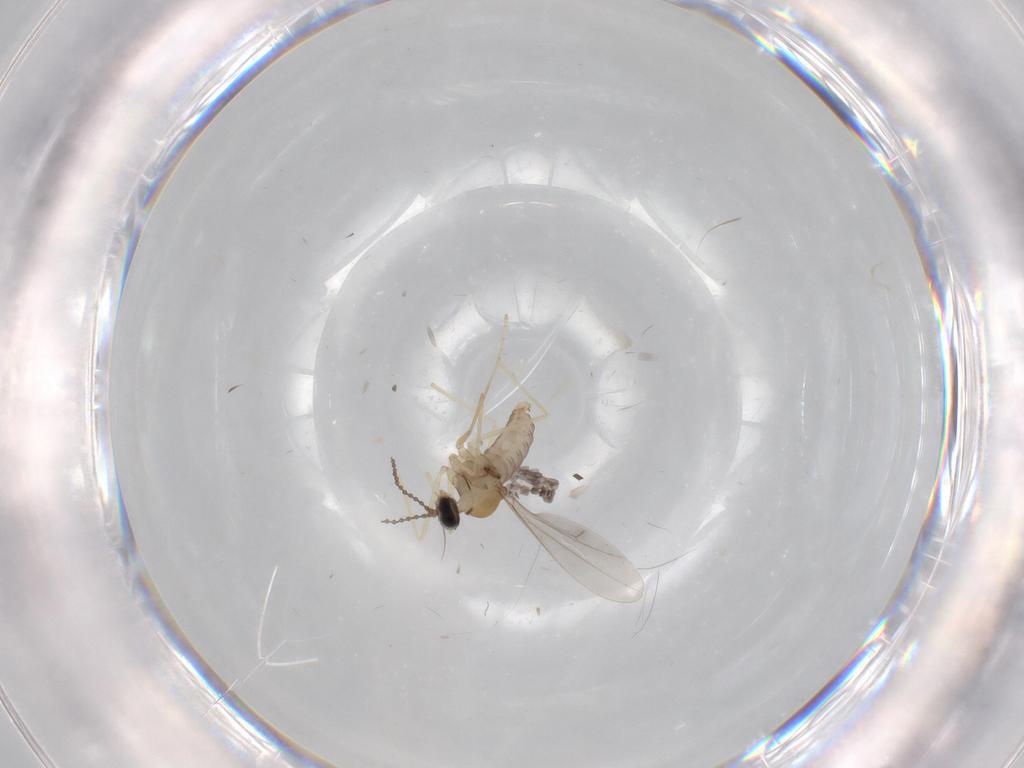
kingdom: Animalia
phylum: Arthropoda
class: Insecta
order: Diptera
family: Cecidomyiidae
